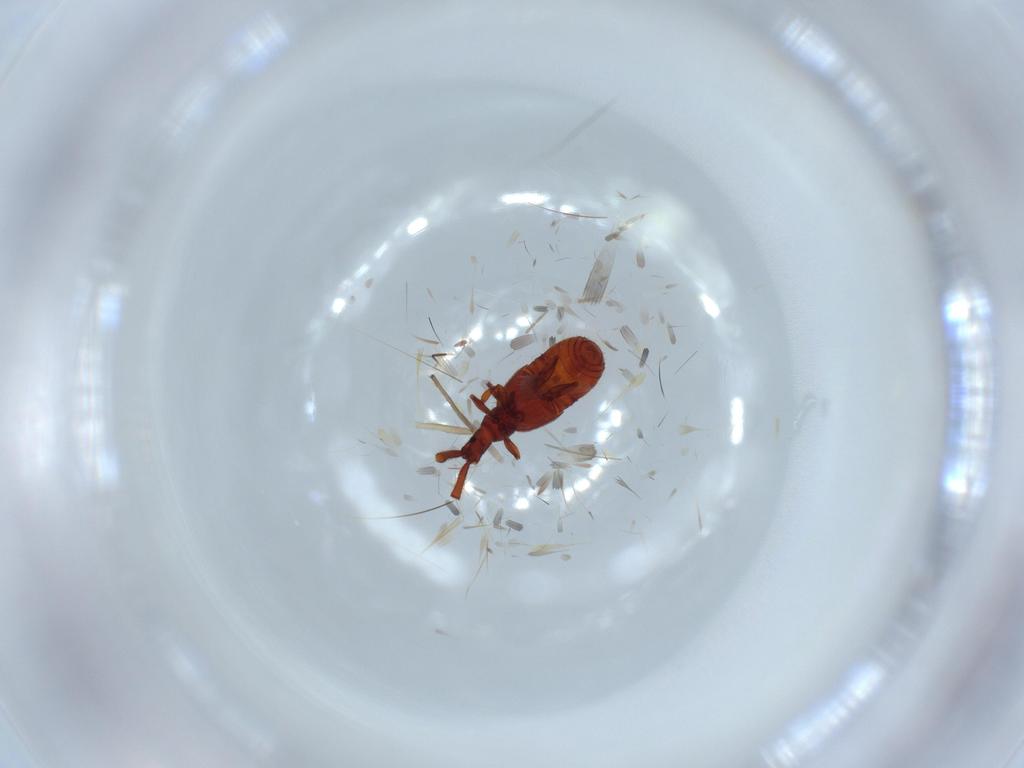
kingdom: Animalia
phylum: Arthropoda
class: Insecta
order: Coleoptera
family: Staphylinidae
